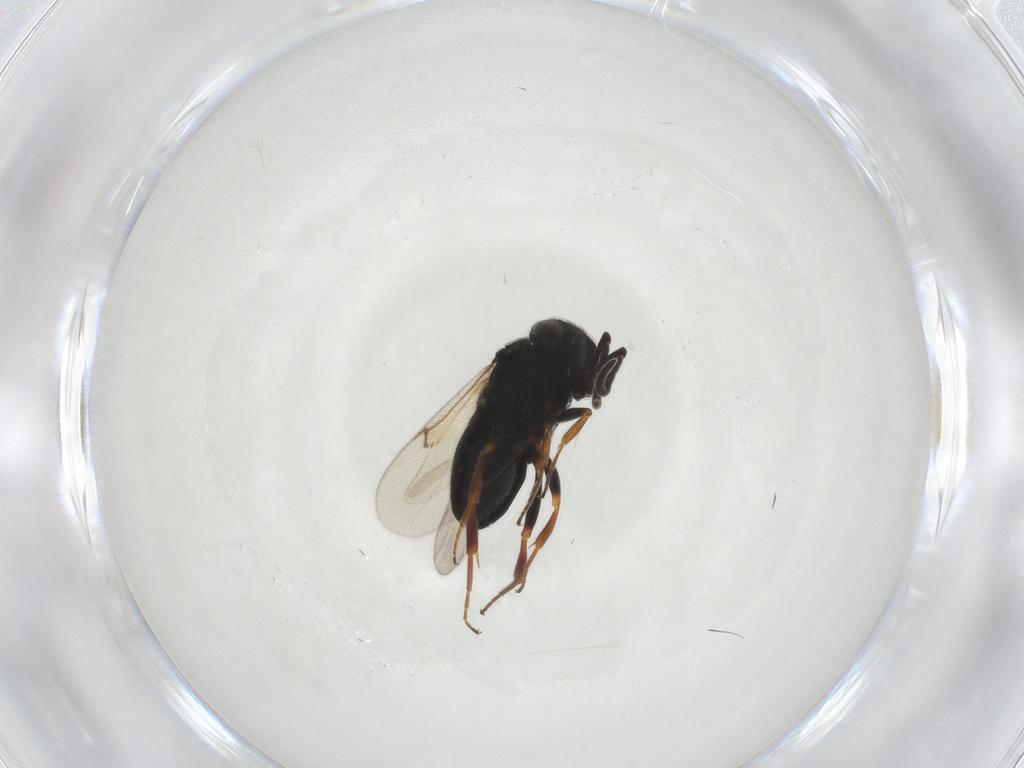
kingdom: Animalia
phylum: Arthropoda
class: Insecta
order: Hymenoptera
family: Scelionidae
